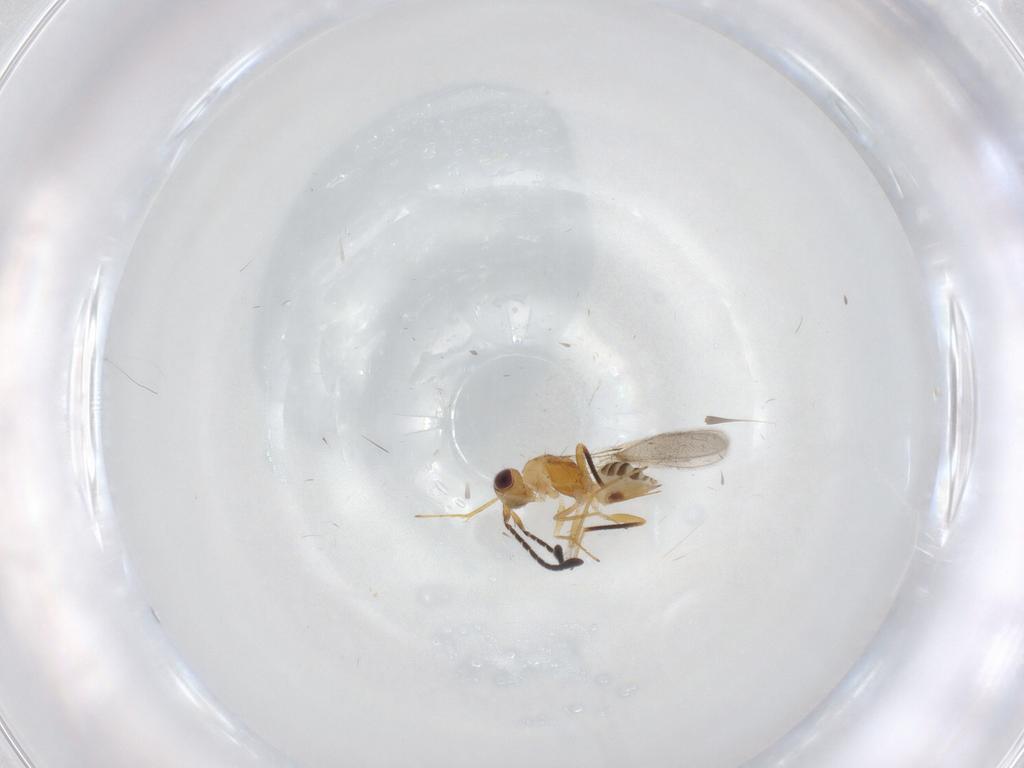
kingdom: Animalia
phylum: Arthropoda
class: Insecta
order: Hymenoptera
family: Mymaridae
